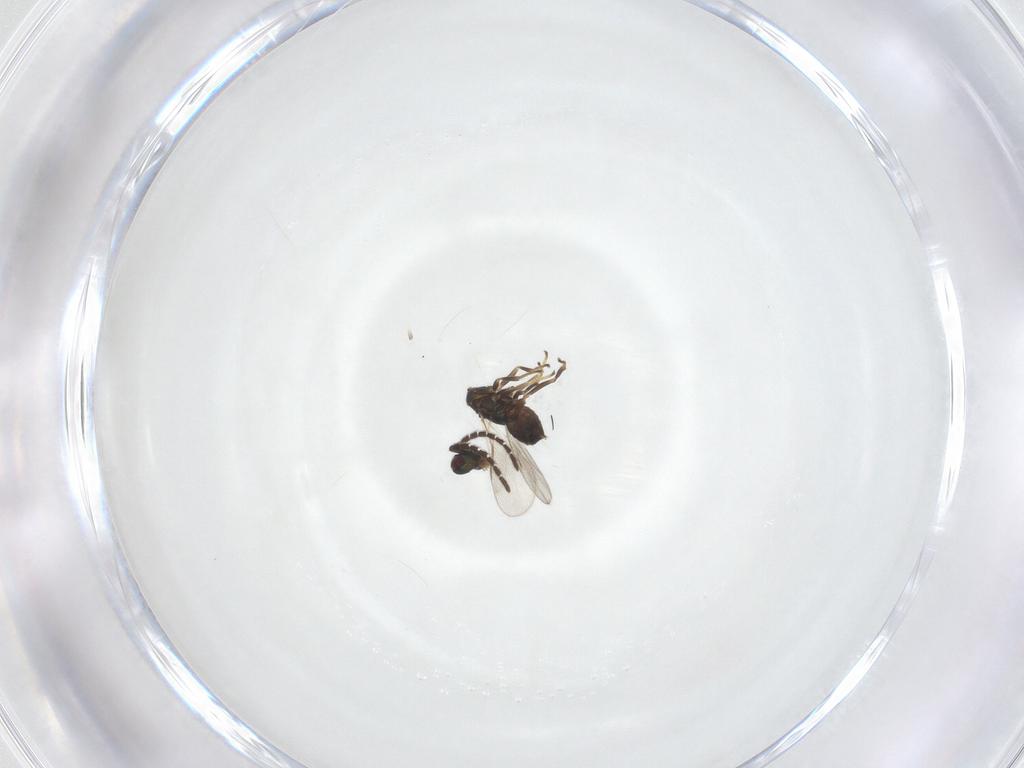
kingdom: Animalia
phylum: Arthropoda
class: Insecta
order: Hymenoptera
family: Encyrtidae
